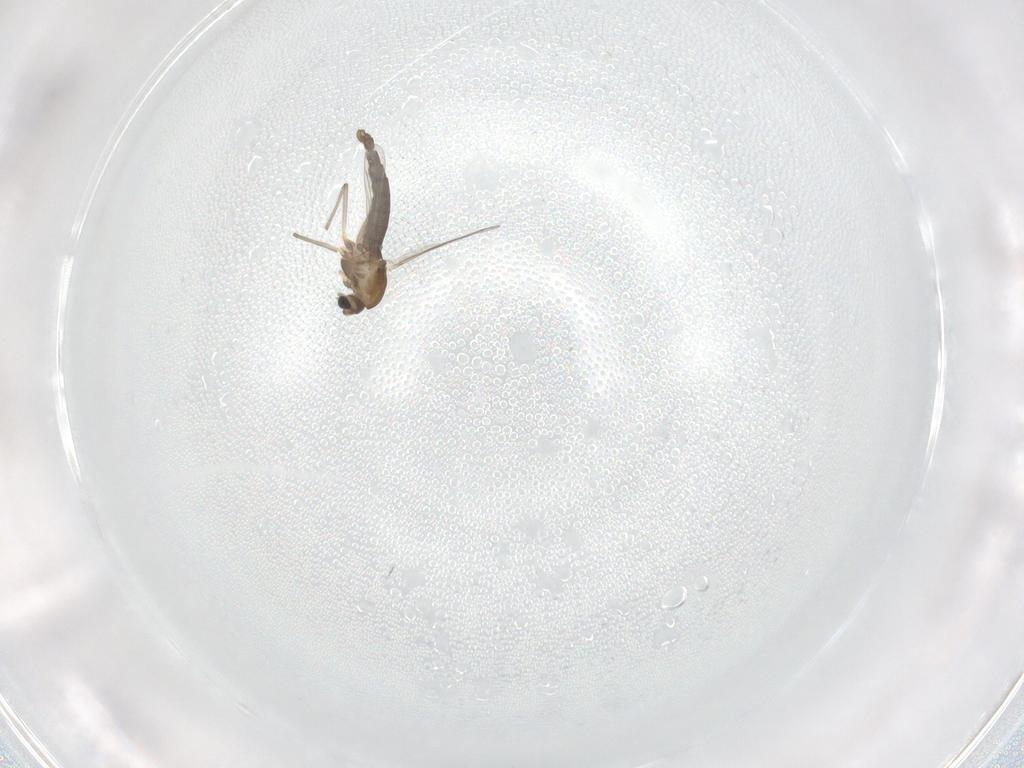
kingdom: Animalia
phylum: Arthropoda
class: Insecta
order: Diptera
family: Chironomidae
